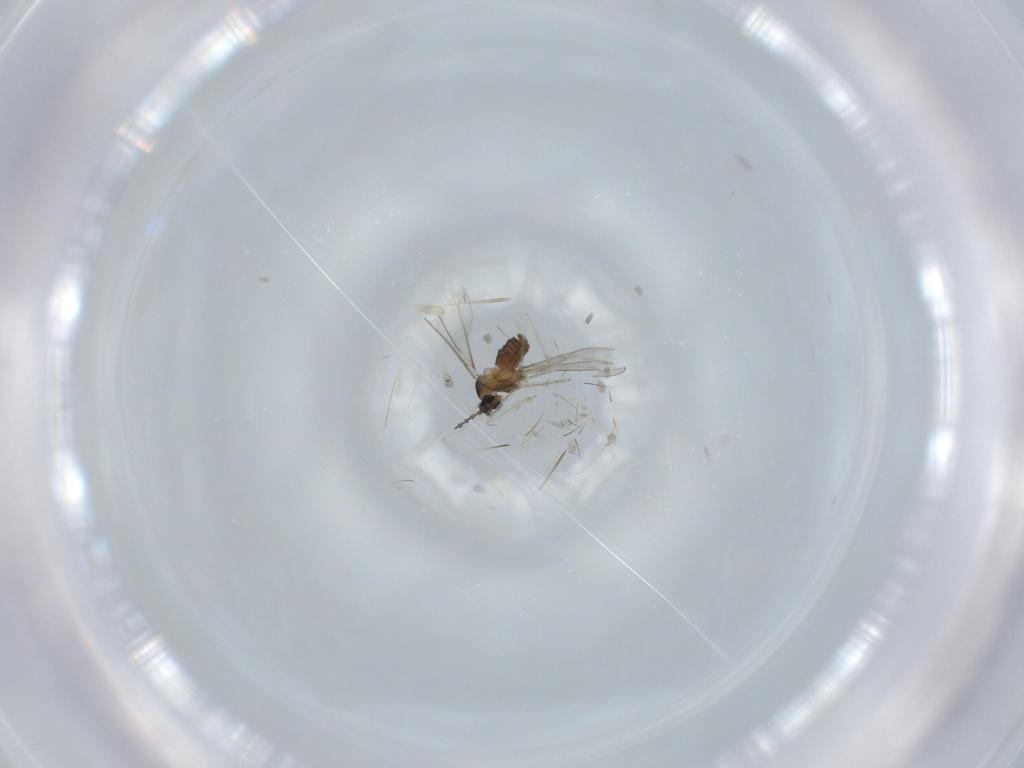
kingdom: Animalia
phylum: Arthropoda
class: Insecta
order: Diptera
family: Cecidomyiidae
